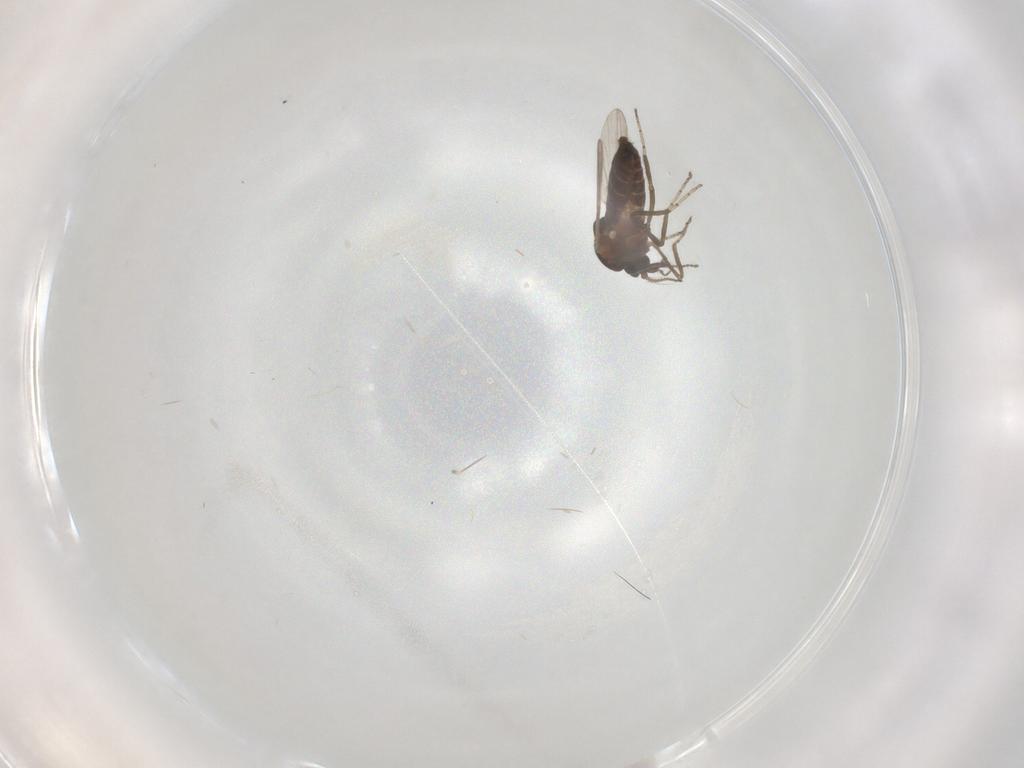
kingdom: Animalia
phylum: Arthropoda
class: Insecta
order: Diptera
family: Ceratopogonidae
